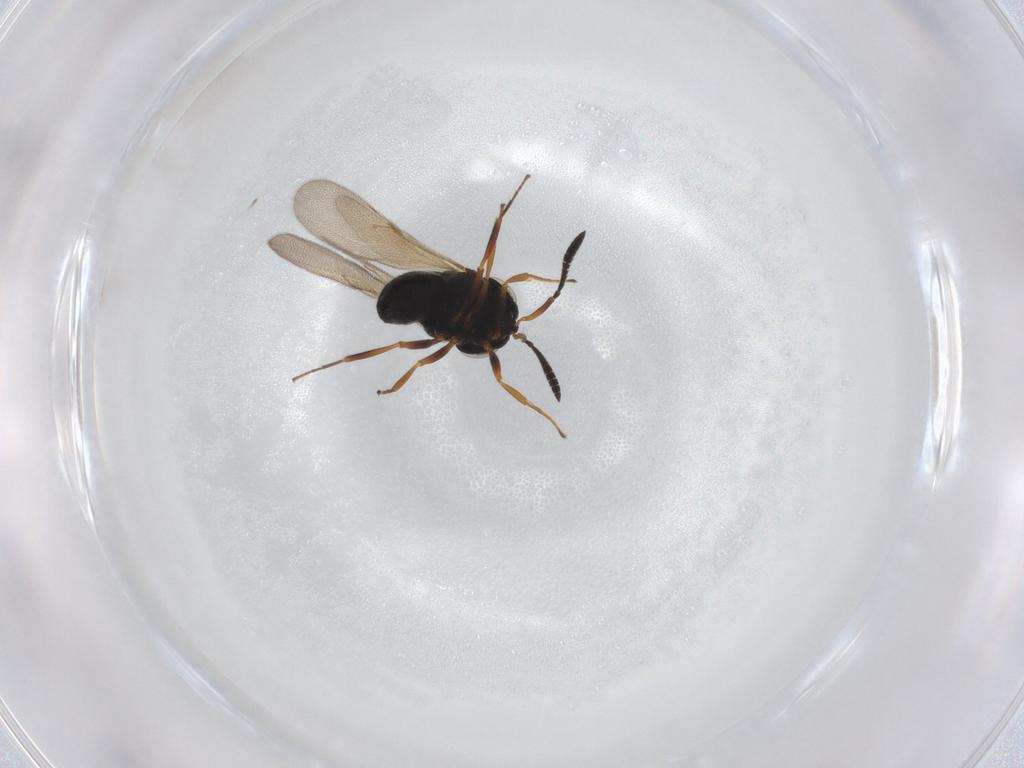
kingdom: Animalia
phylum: Arthropoda
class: Insecta
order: Hymenoptera
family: Scelionidae
